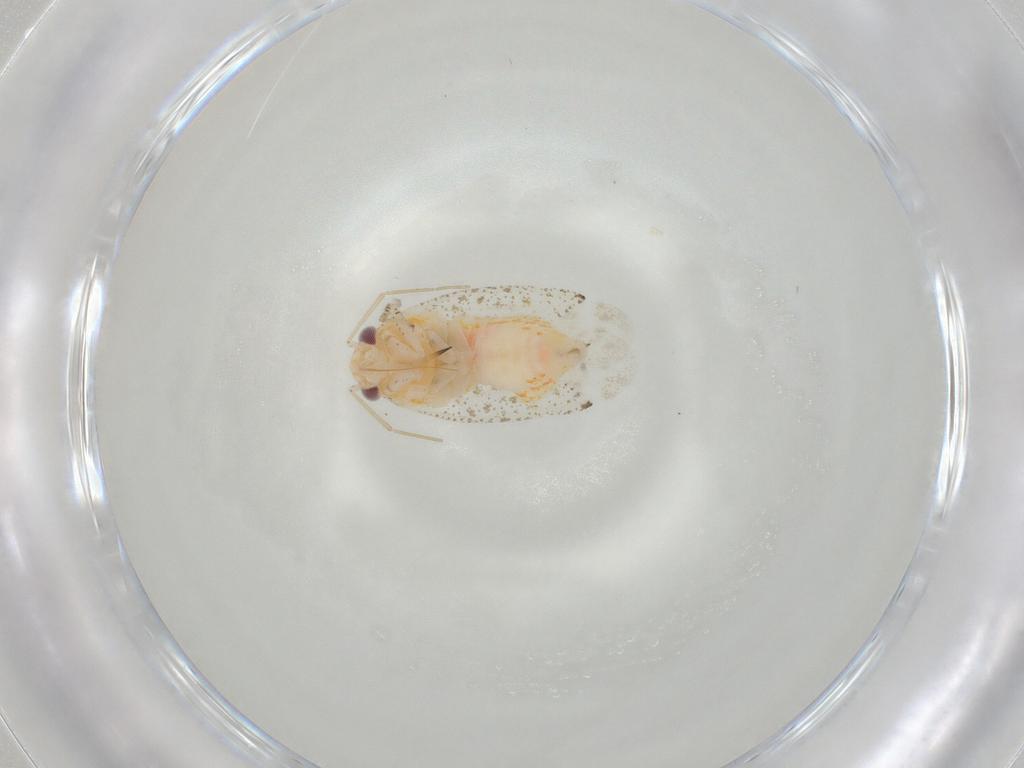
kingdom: Animalia
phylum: Arthropoda
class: Insecta
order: Hemiptera
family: Miridae
